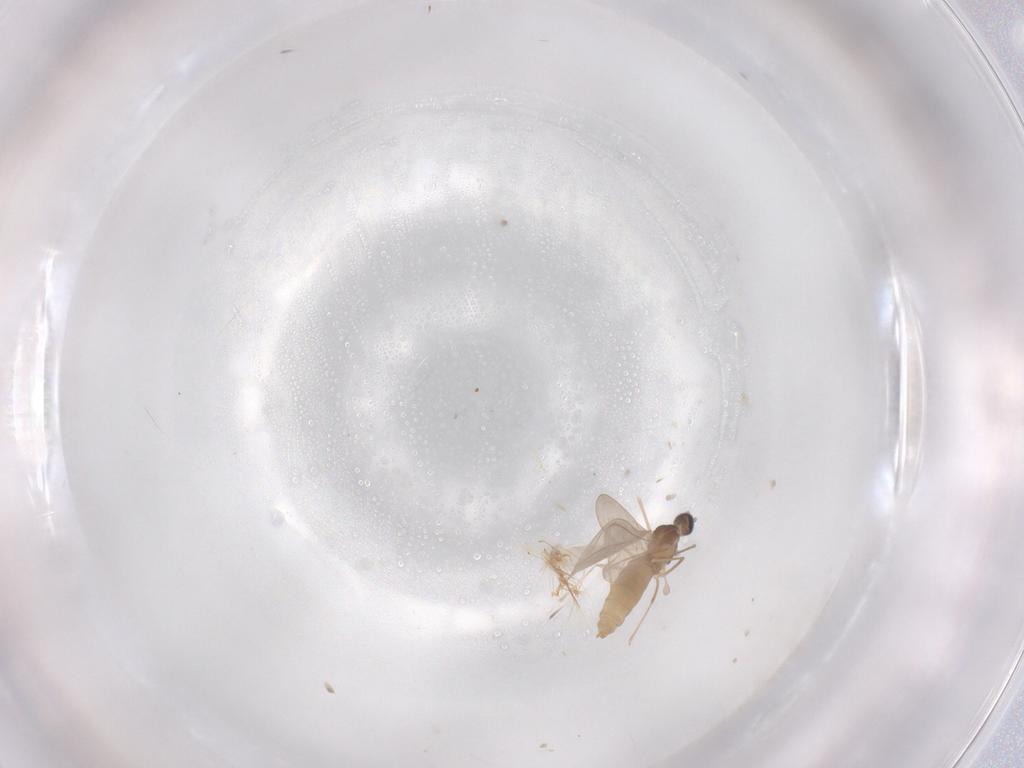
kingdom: Animalia
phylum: Arthropoda
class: Insecta
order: Diptera
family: Cecidomyiidae
